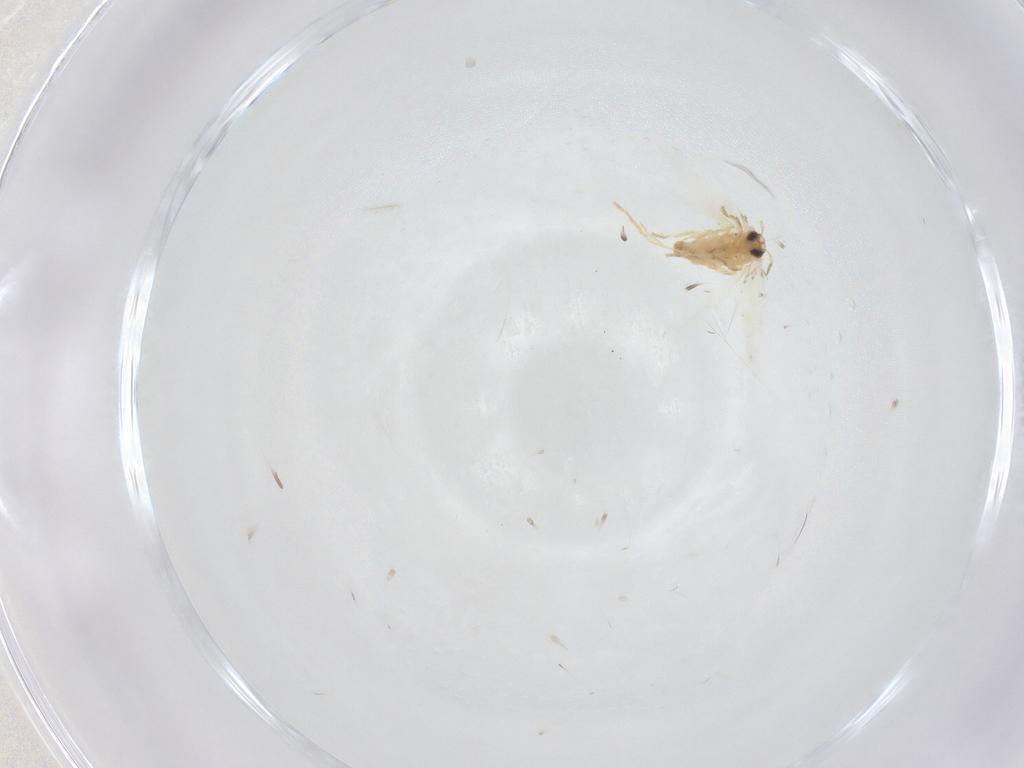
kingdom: Animalia
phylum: Arthropoda
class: Insecta
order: Lepidoptera
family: Crambidae
